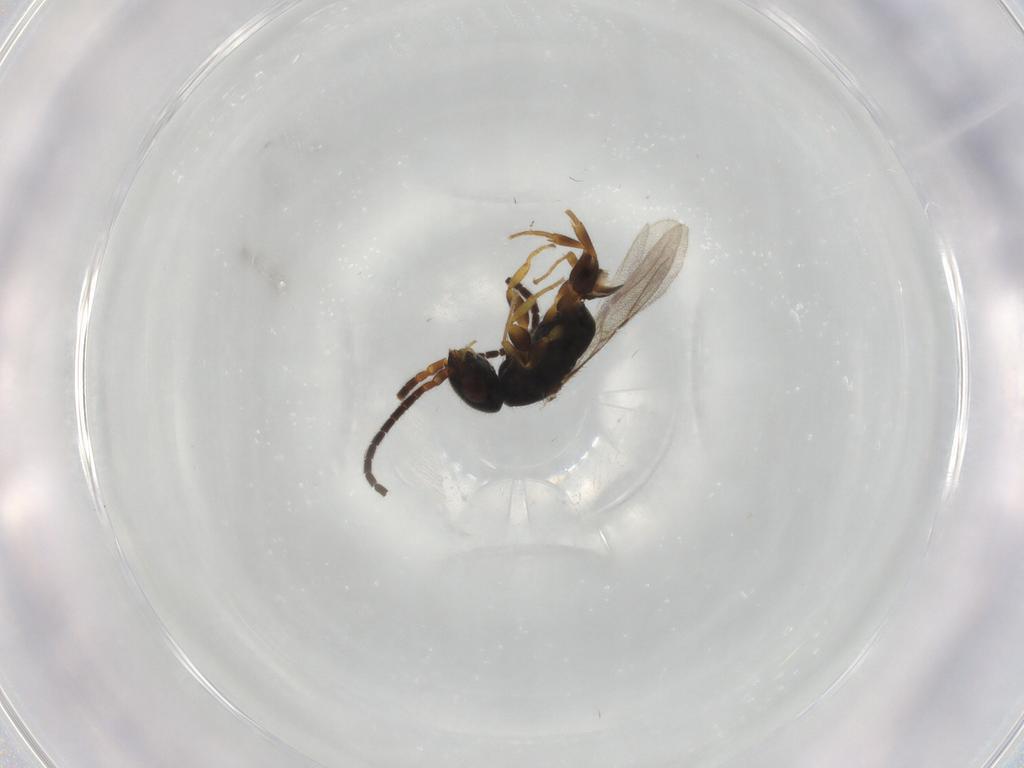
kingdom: Animalia
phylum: Arthropoda
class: Insecta
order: Hymenoptera
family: Bethylidae
